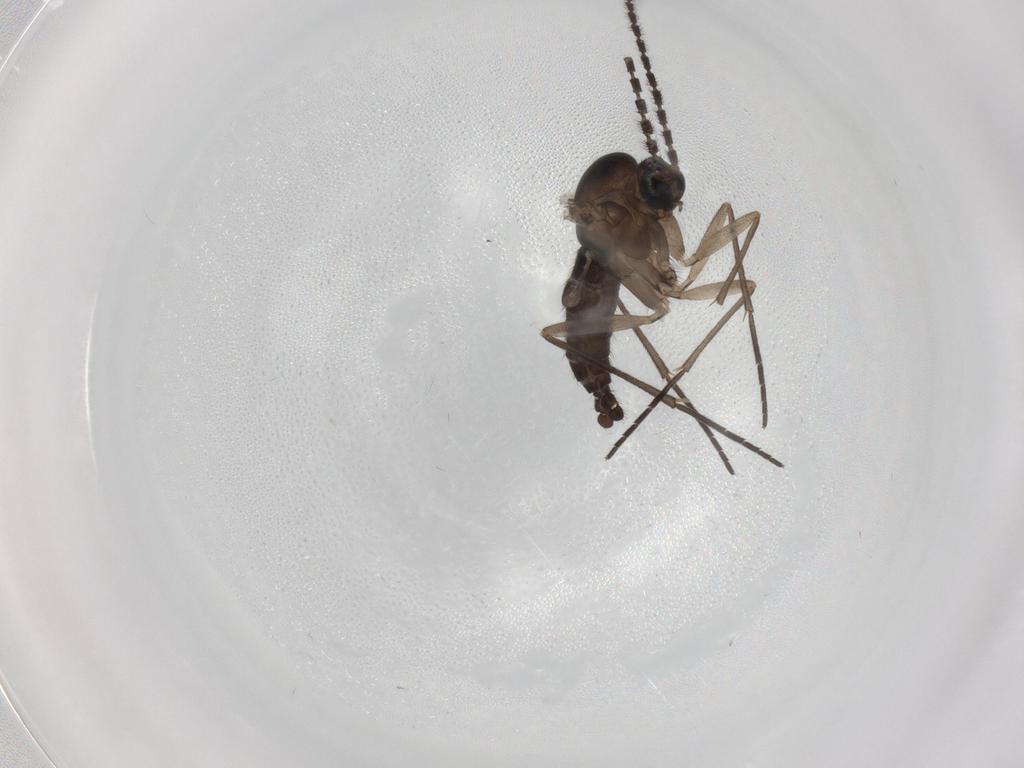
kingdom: Animalia
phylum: Arthropoda
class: Insecta
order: Diptera
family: Sciaridae
